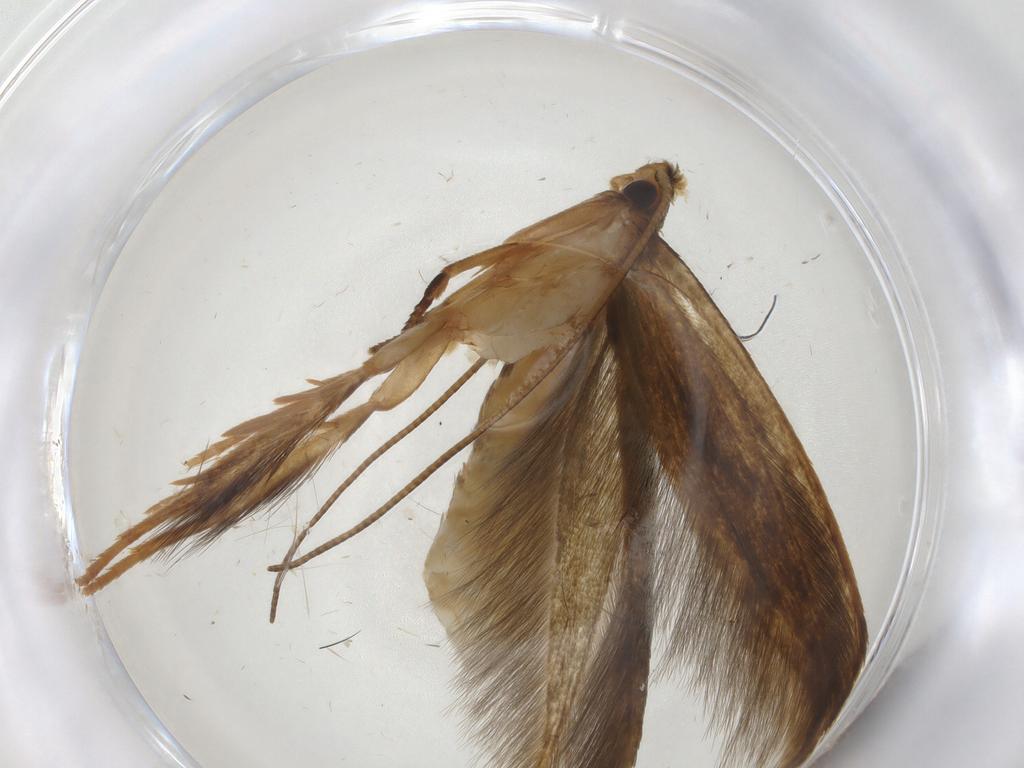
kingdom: Animalia
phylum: Arthropoda
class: Insecta
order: Lepidoptera
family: Tineidae
